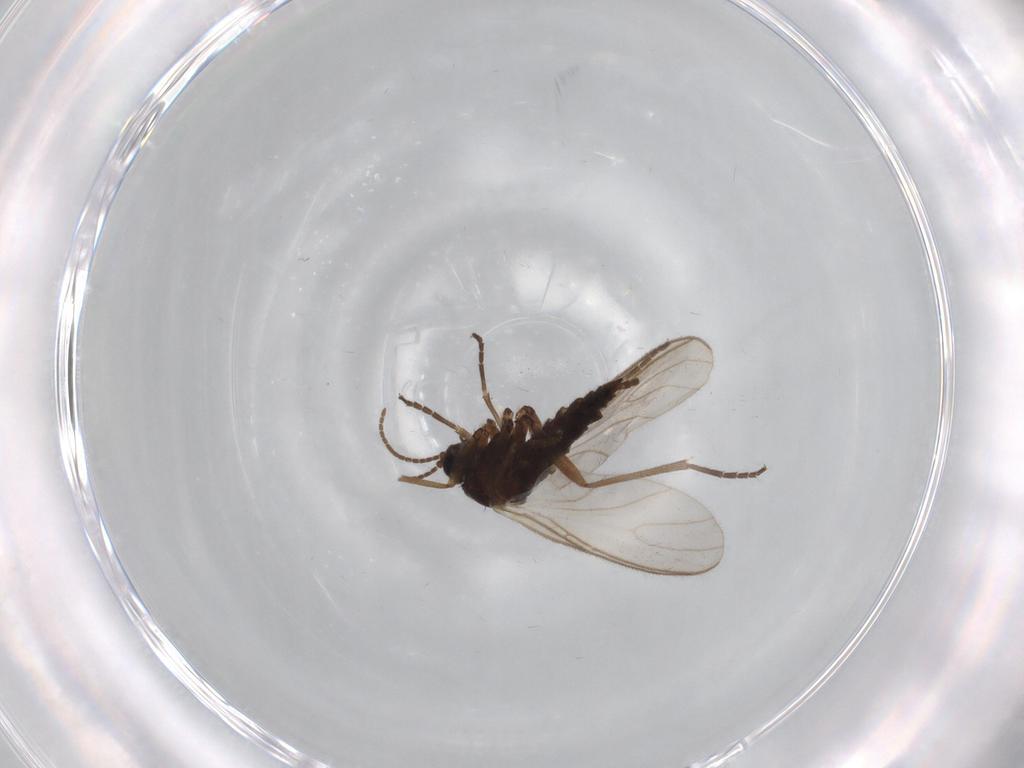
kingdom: Animalia
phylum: Arthropoda
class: Insecta
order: Diptera
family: Sciaridae
